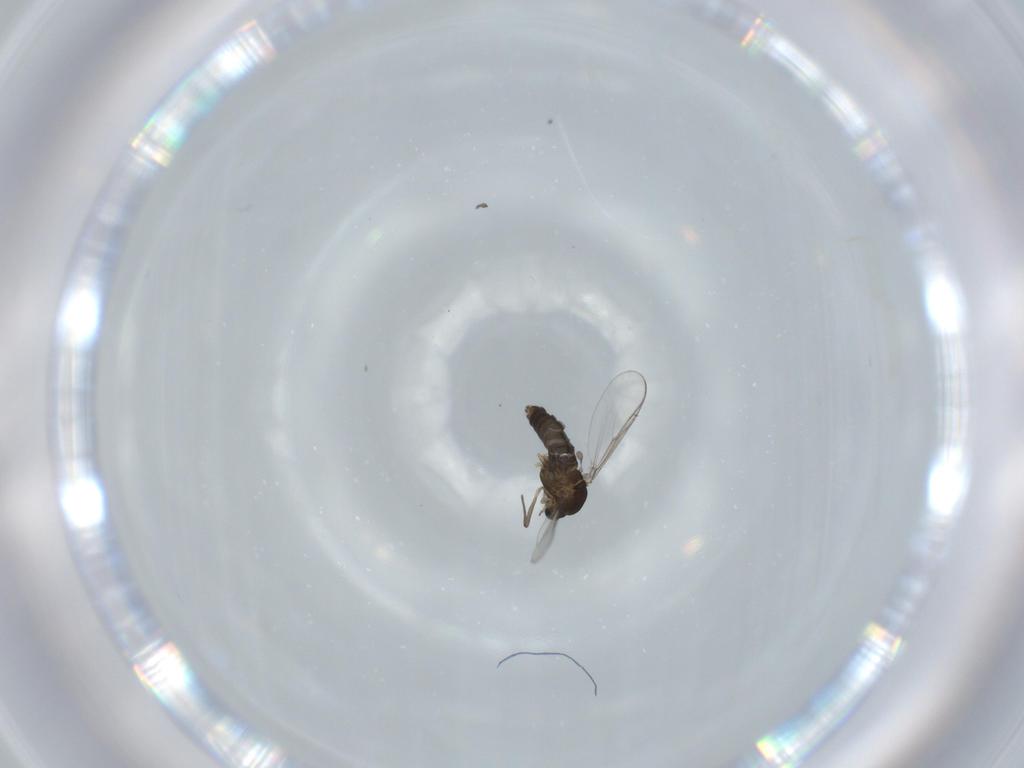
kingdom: Animalia
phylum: Arthropoda
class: Insecta
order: Diptera
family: Chironomidae
